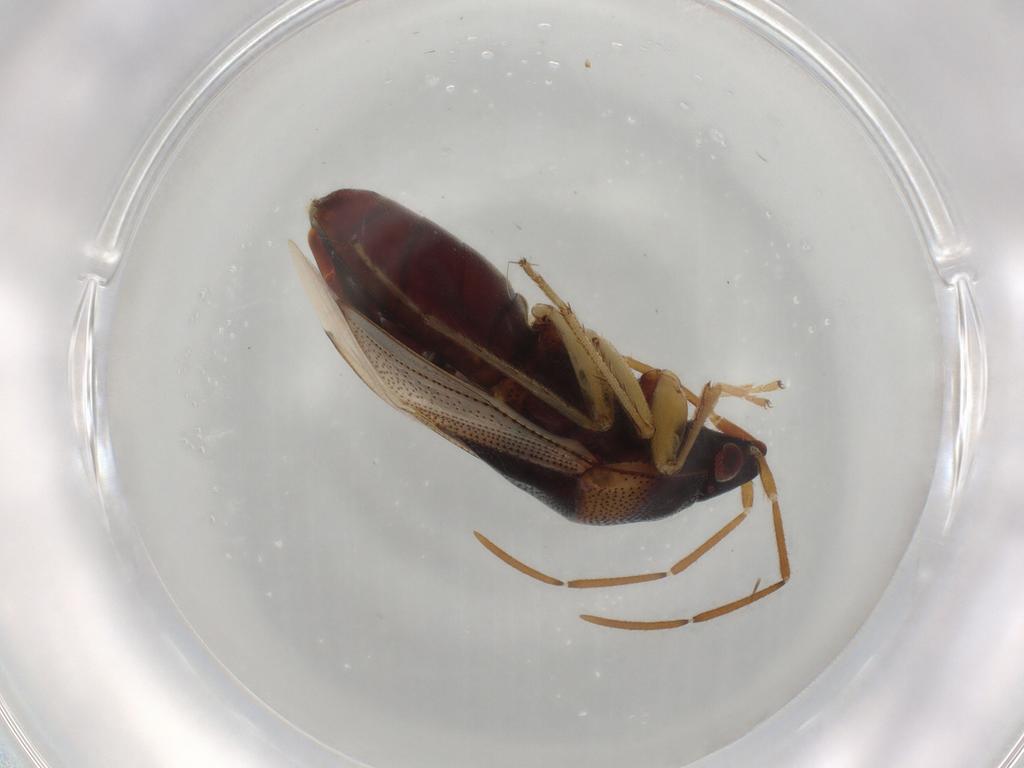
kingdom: Animalia
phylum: Arthropoda
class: Insecta
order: Hemiptera
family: Rhyparochromidae
